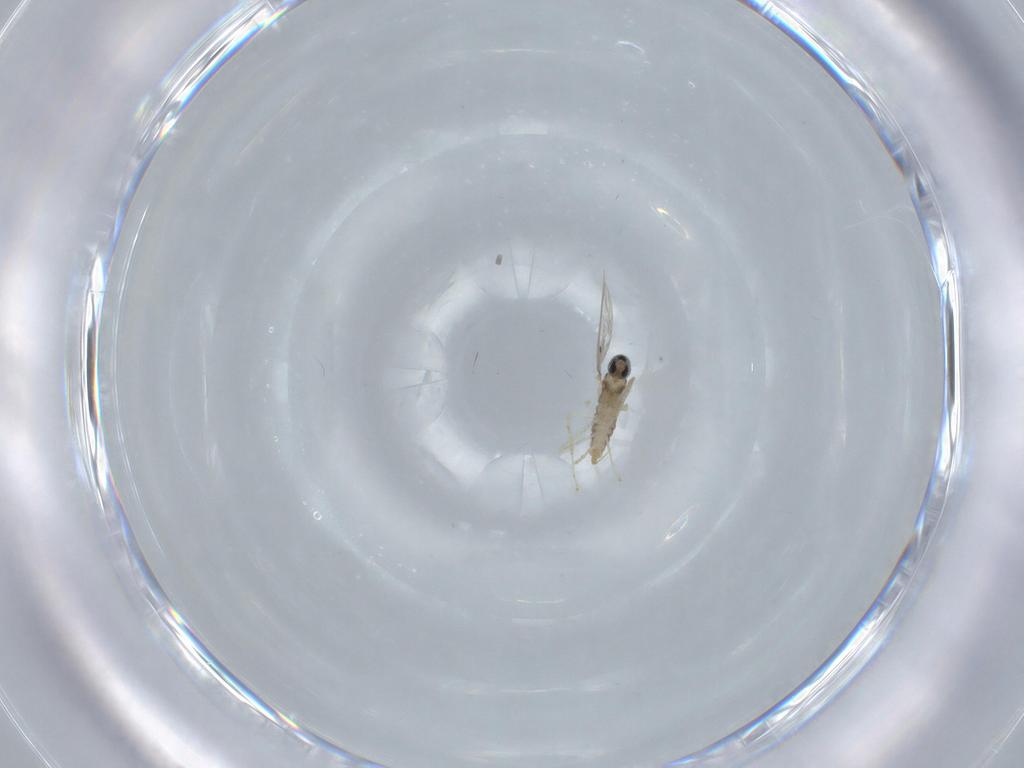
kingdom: Animalia
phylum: Arthropoda
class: Insecta
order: Diptera
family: Cecidomyiidae
